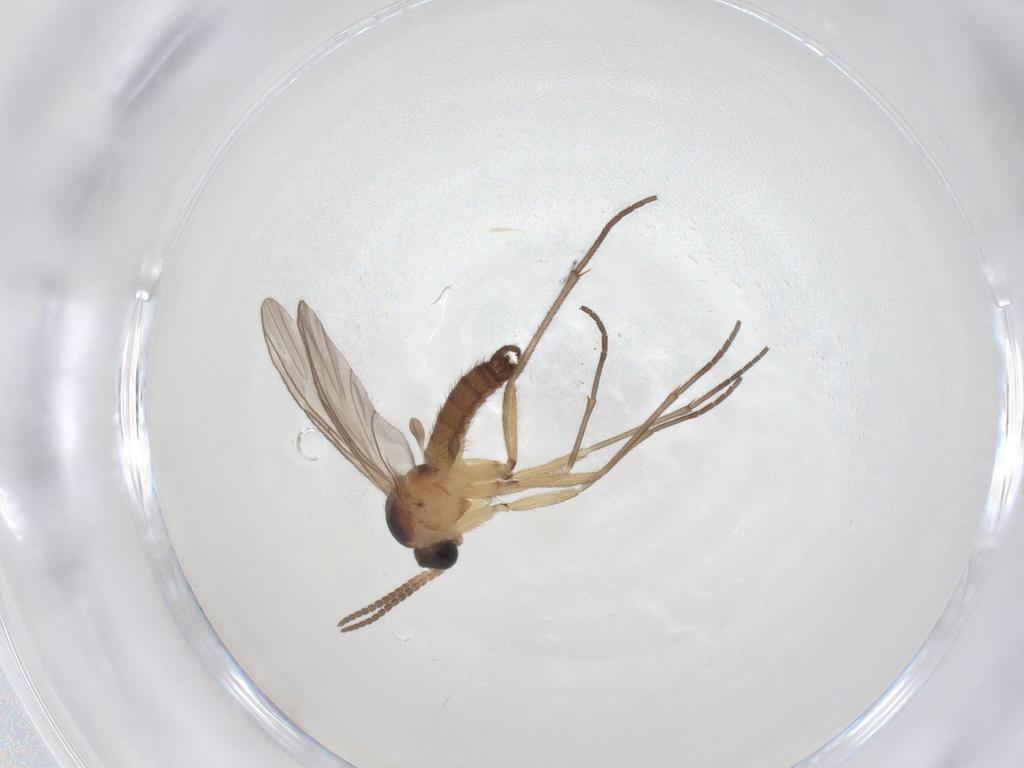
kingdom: Animalia
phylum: Arthropoda
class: Insecta
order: Diptera
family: Sciaridae
